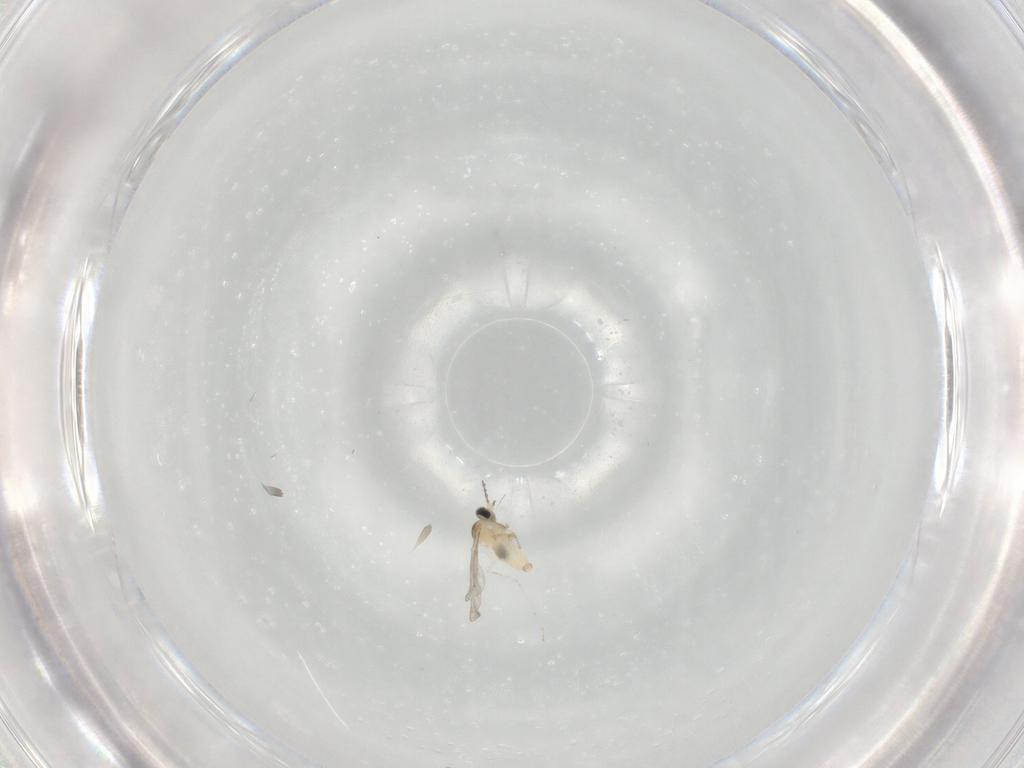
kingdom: Animalia
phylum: Arthropoda
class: Insecta
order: Diptera
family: Cecidomyiidae
